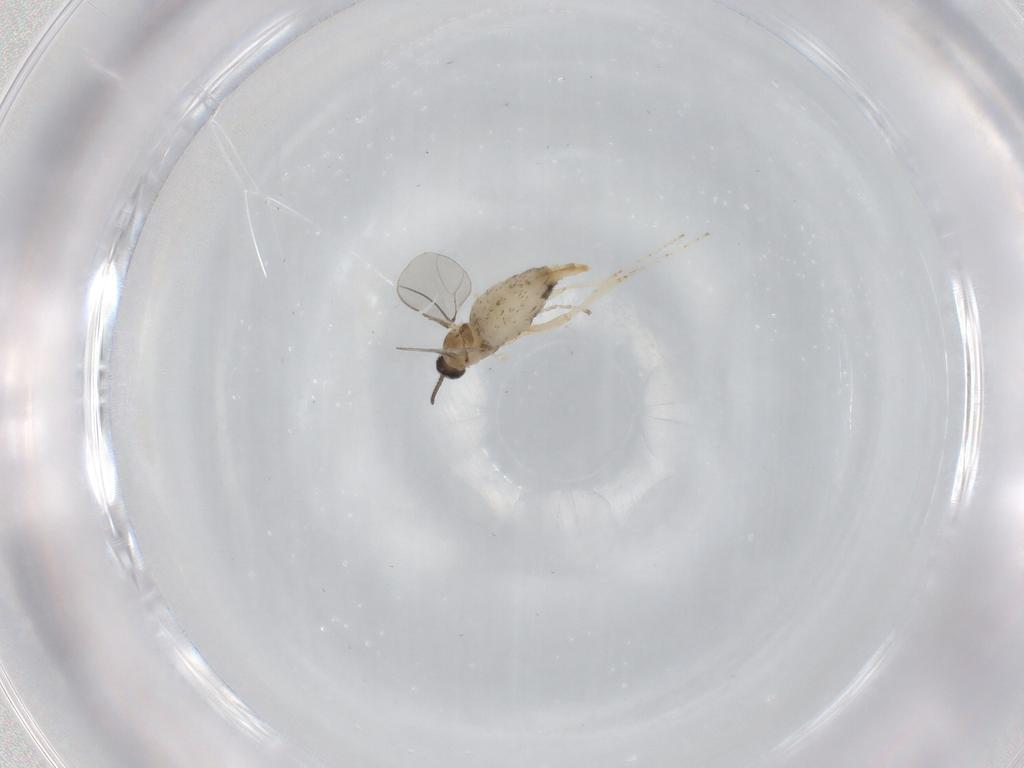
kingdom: Animalia
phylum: Arthropoda
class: Insecta
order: Diptera
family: Cecidomyiidae
